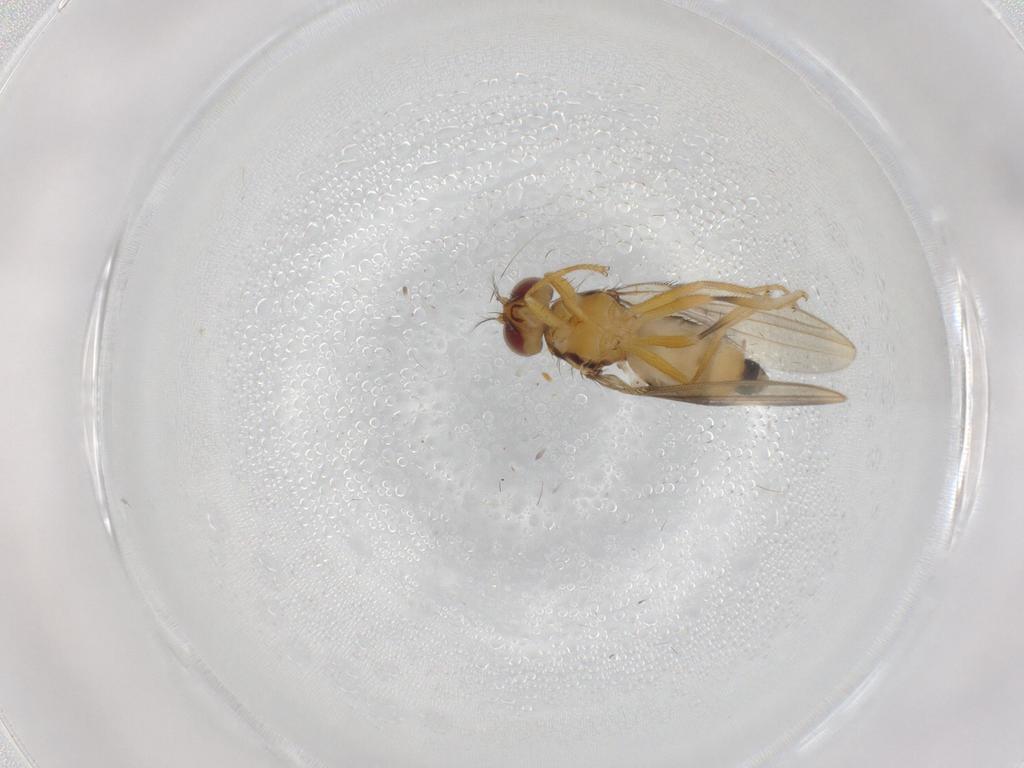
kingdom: Animalia
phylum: Arthropoda
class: Insecta
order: Diptera
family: Periscelididae
